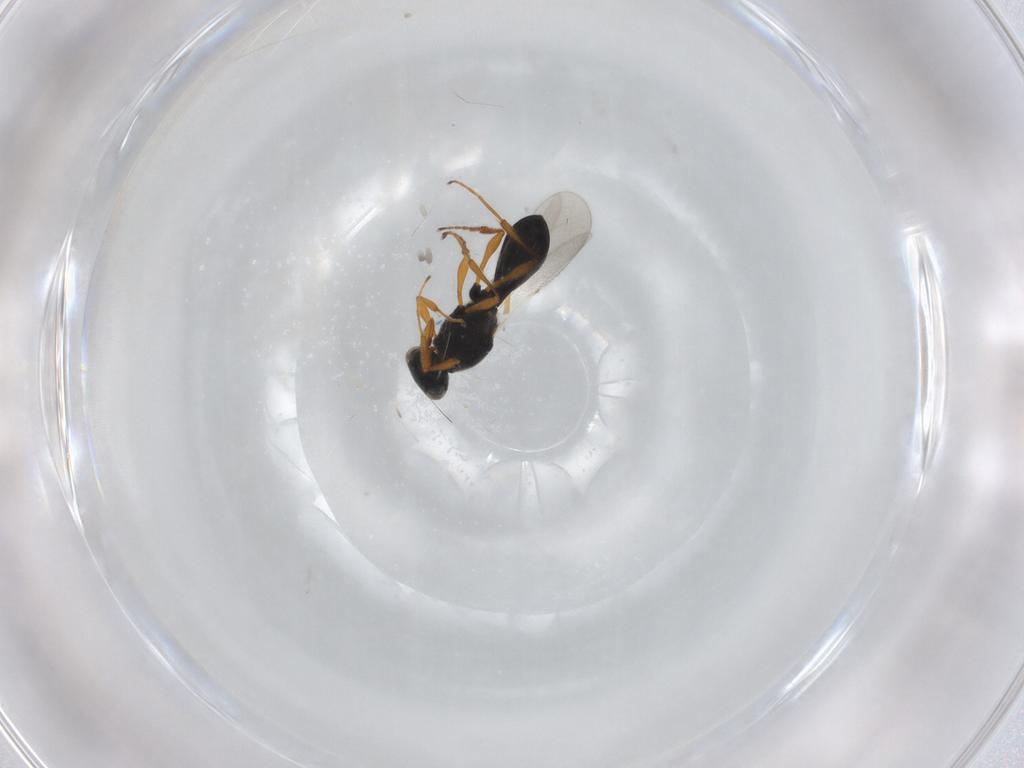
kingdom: Animalia
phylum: Arthropoda
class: Insecta
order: Hymenoptera
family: Platygastridae
